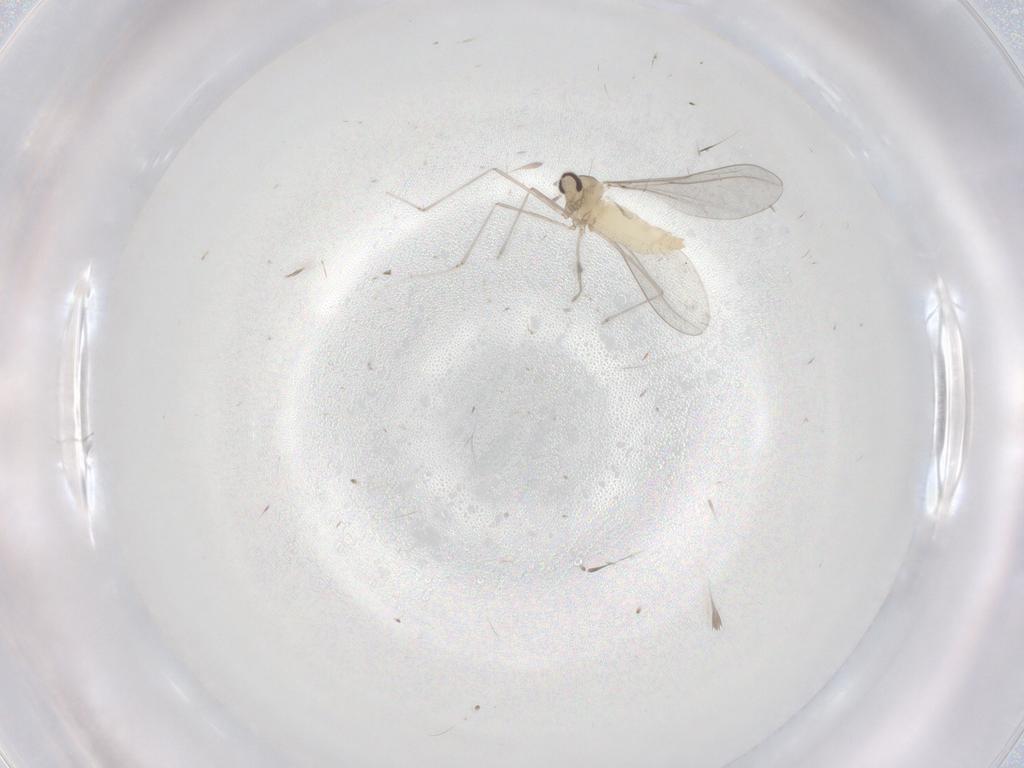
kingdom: Animalia
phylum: Arthropoda
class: Insecta
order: Diptera
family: Cecidomyiidae
